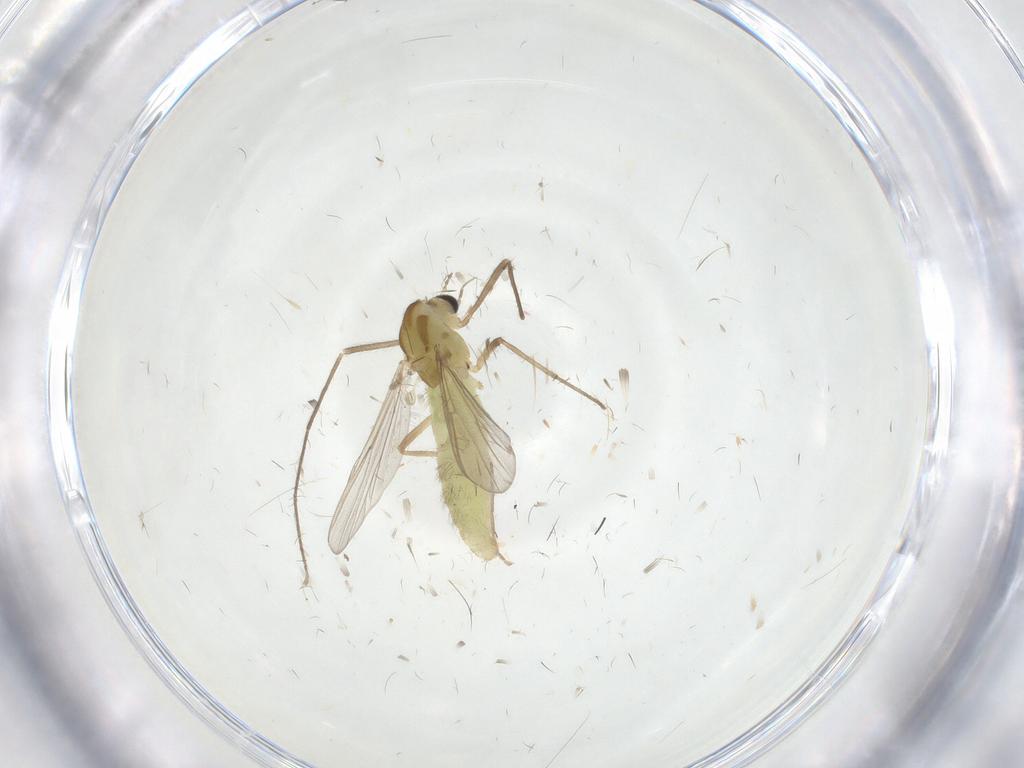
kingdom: Animalia
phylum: Arthropoda
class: Insecta
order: Diptera
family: Chironomidae
